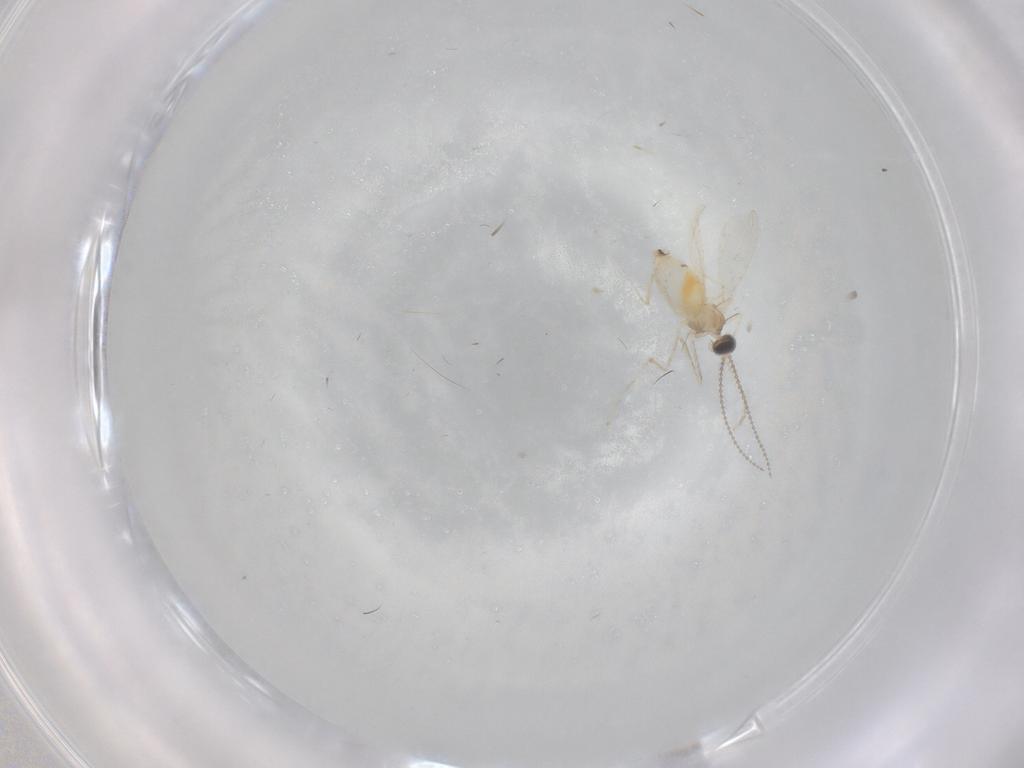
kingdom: Animalia
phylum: Arthropoda
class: Insecta
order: Diptera
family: Cecidomyiidae
